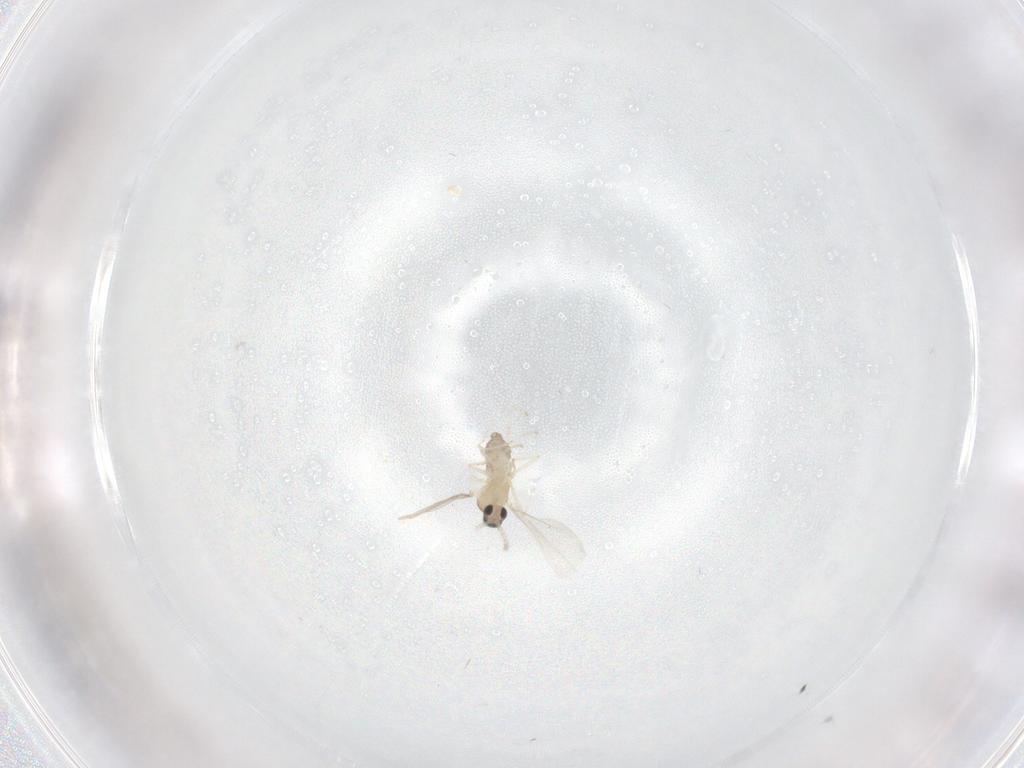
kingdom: Animalia
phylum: Arthropoda
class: Insecta
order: Diptera
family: Cecidomyiidae
